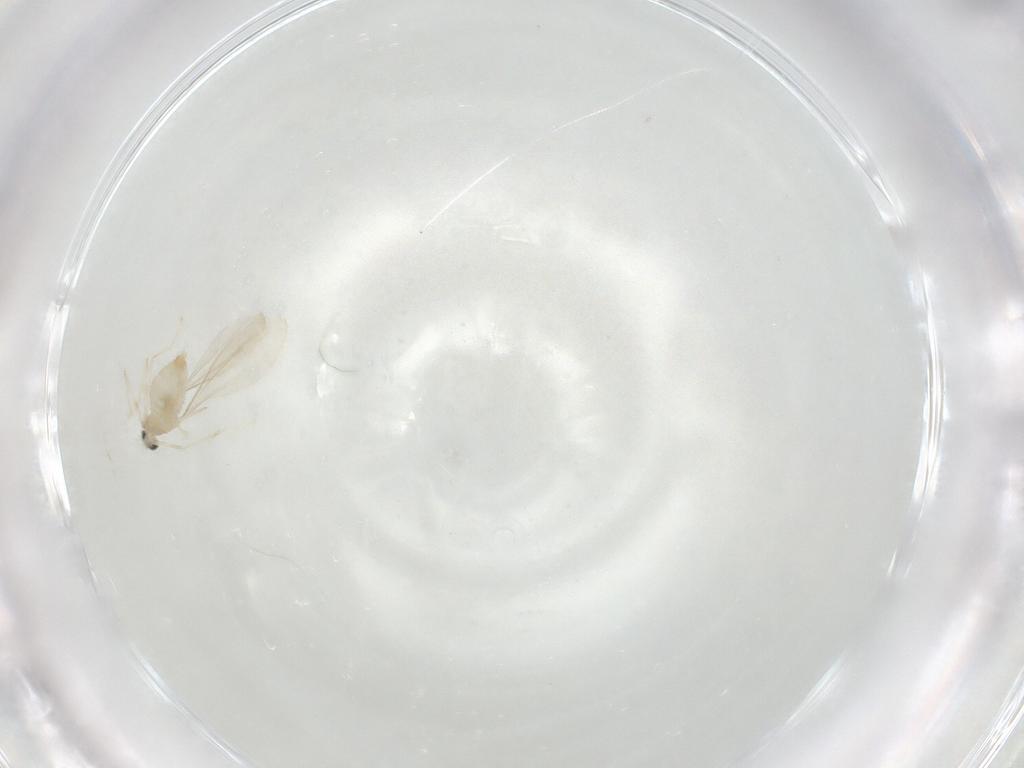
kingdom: Animalia
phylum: Arthropoda
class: Insecta
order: Diptera
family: Cecidomyiidae
